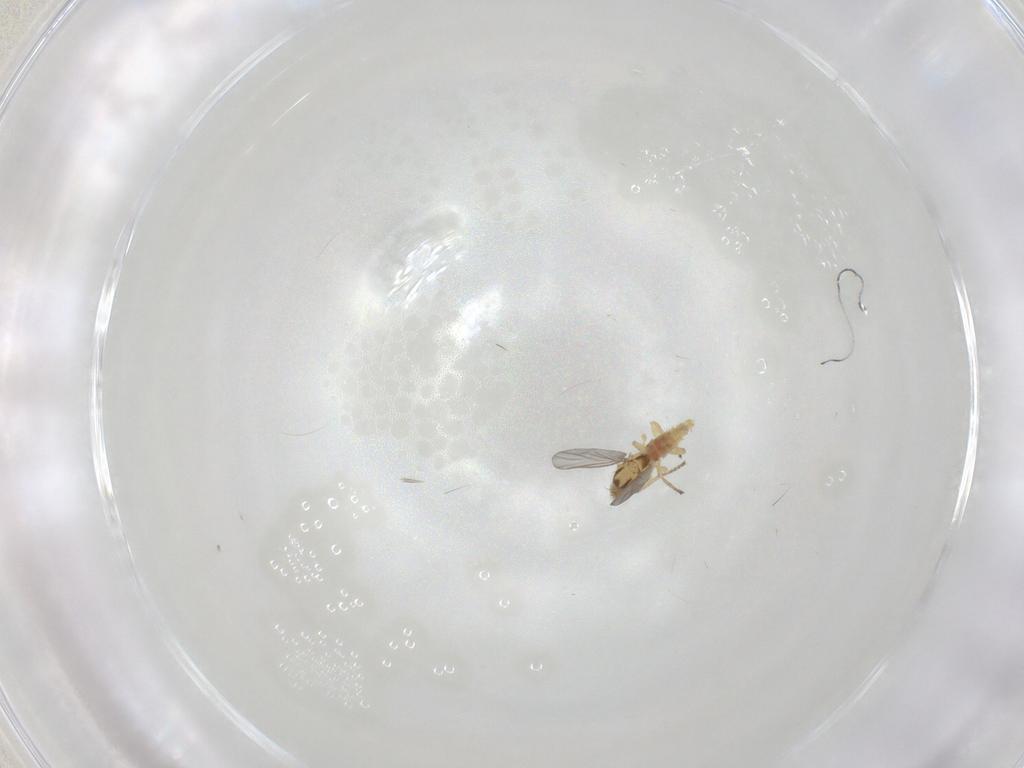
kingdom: Animalia
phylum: Arthropoda
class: Insecta
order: Diptera
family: Agromyzidae
